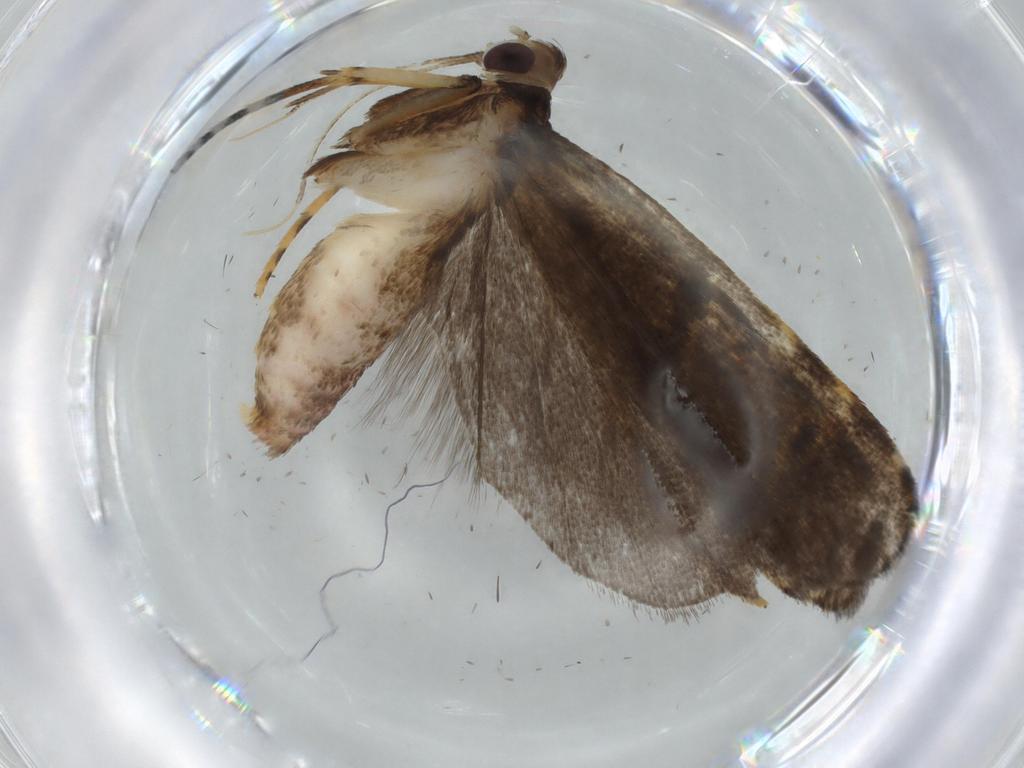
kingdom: Animalia
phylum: Arthropoda
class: Insecta
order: Lepidoptera
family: Autostichidae
